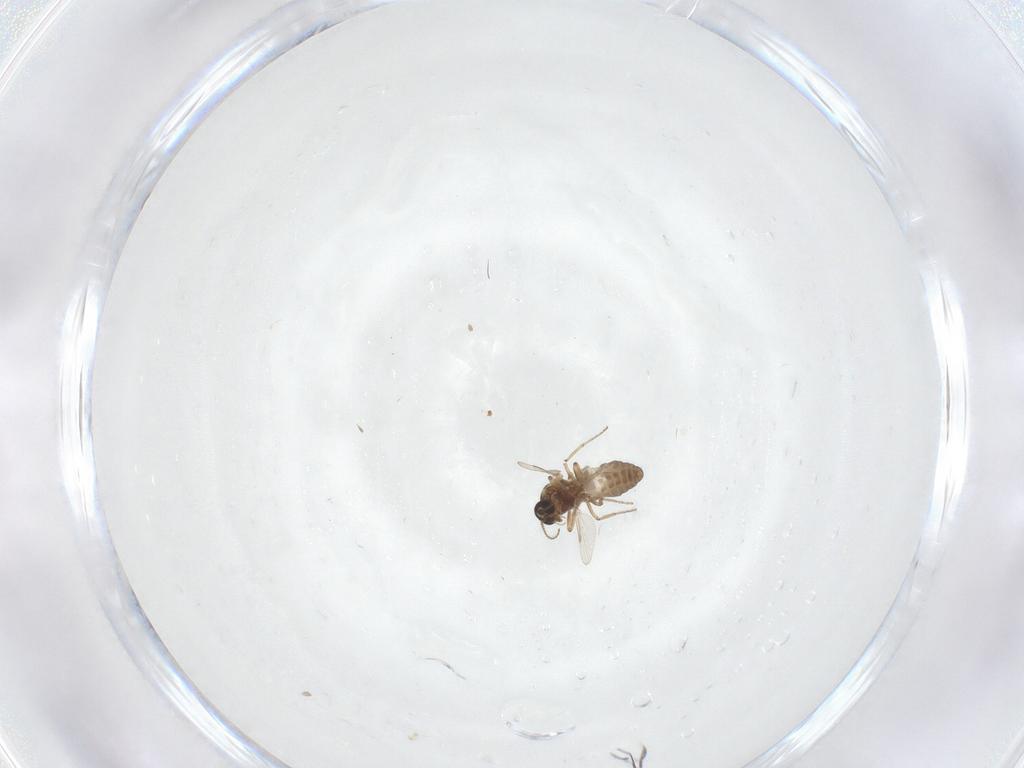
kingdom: Animalia
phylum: Arthropoda
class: Insecta
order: Diptera
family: Ceratopogonidae
